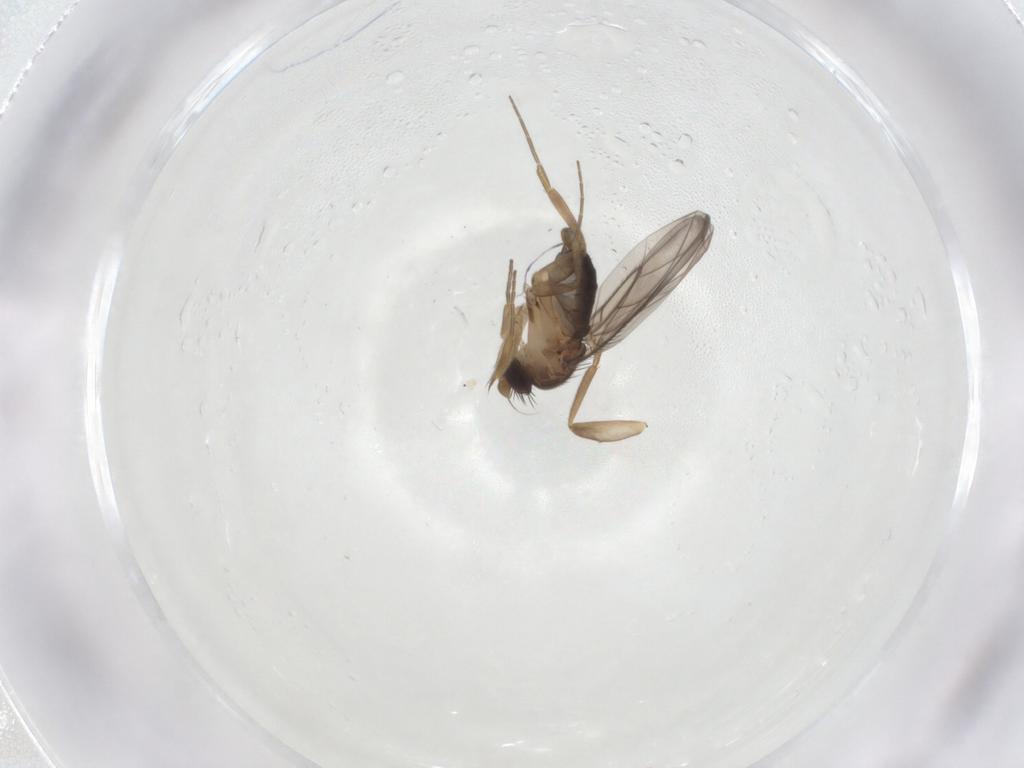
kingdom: Animalia
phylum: Arthropoda
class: Insecta
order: Diptera
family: Phoridae
